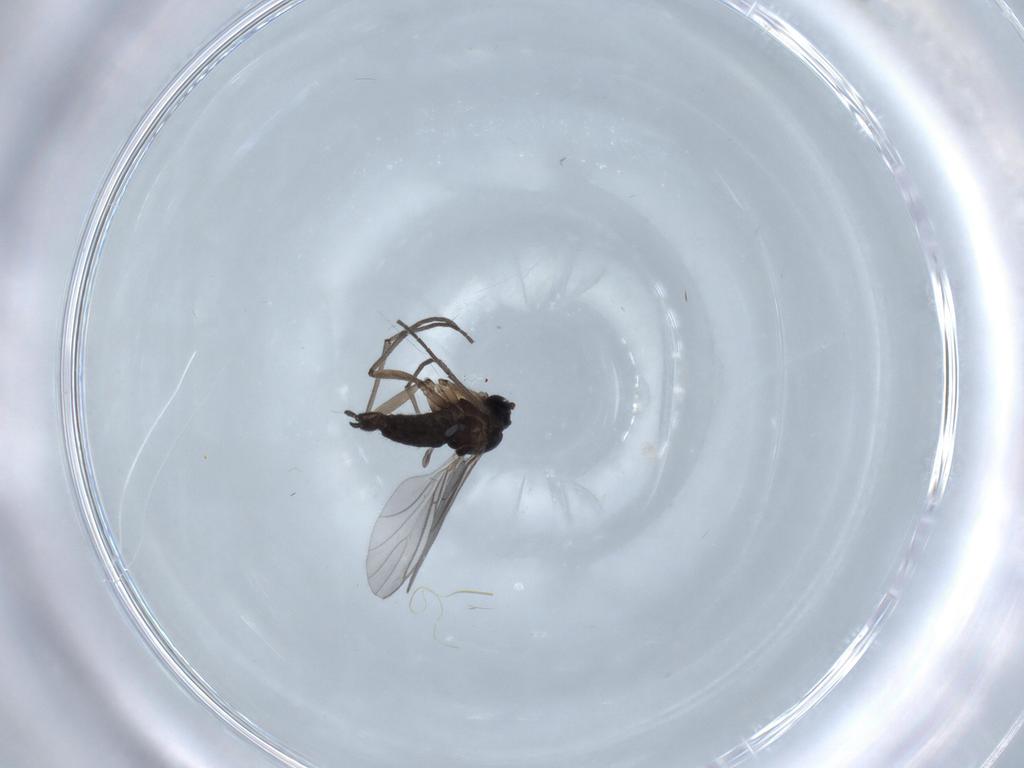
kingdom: Animalia
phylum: Arthropoda
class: Insecta
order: Diptera
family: Sciaridae
